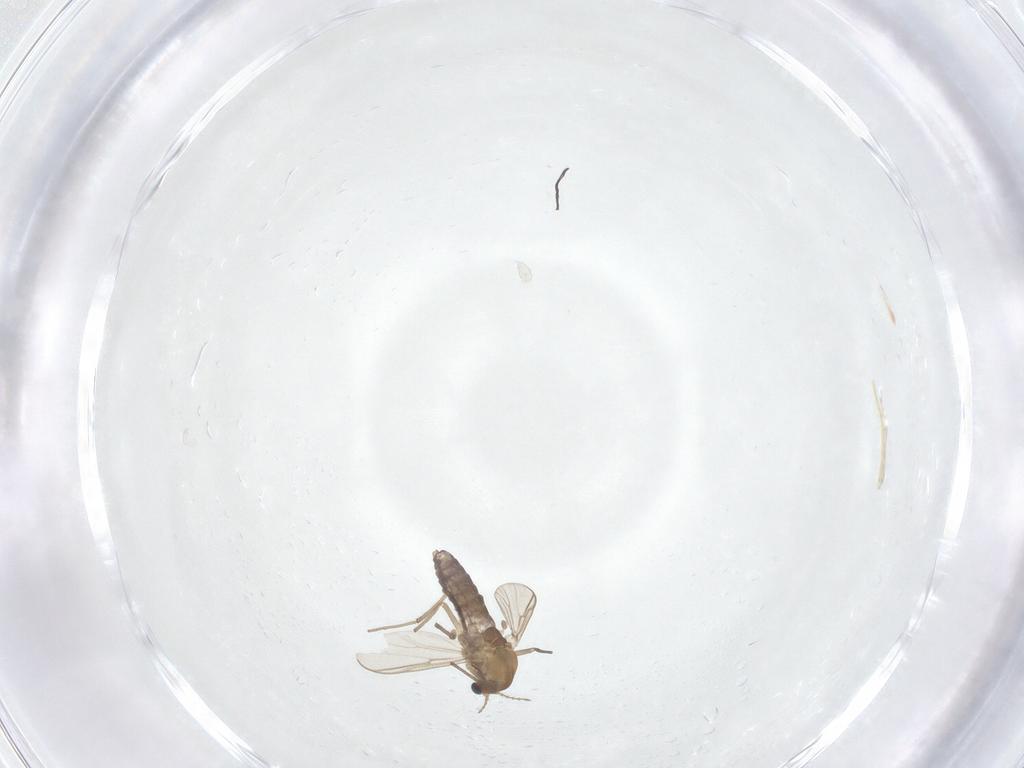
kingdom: Animalia
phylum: Arthropoda
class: Insecta
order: Diptera
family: Chironomidae
